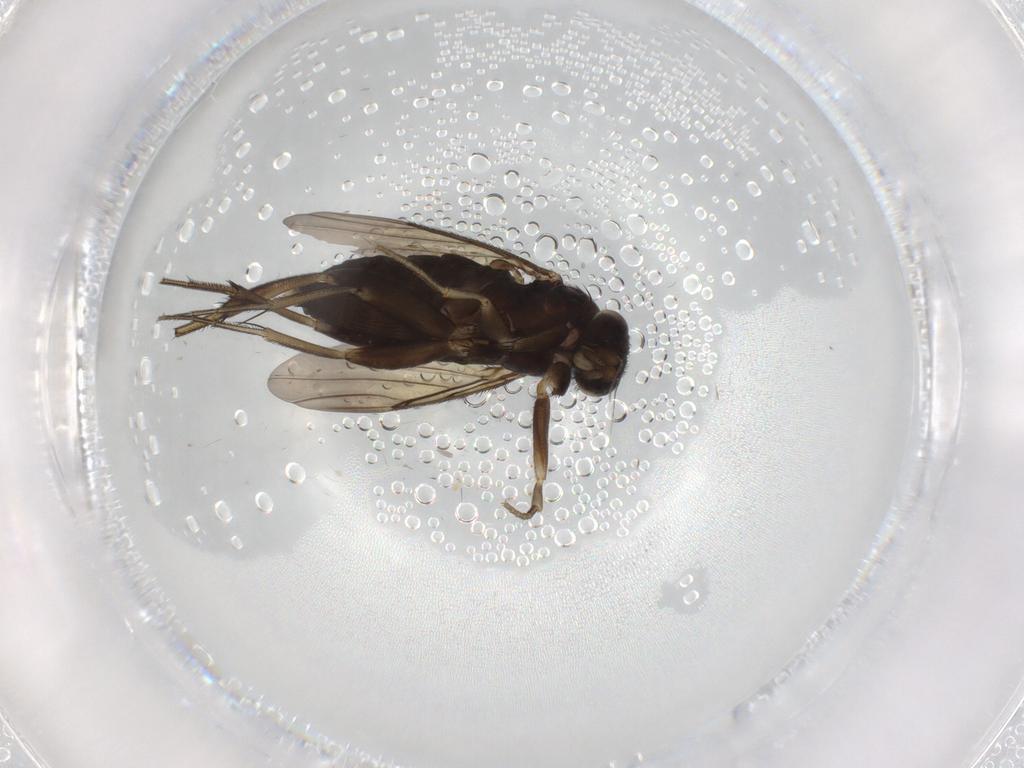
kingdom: Animalia
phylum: Arthropoda
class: Insecta
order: Diptera
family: Phoridae
